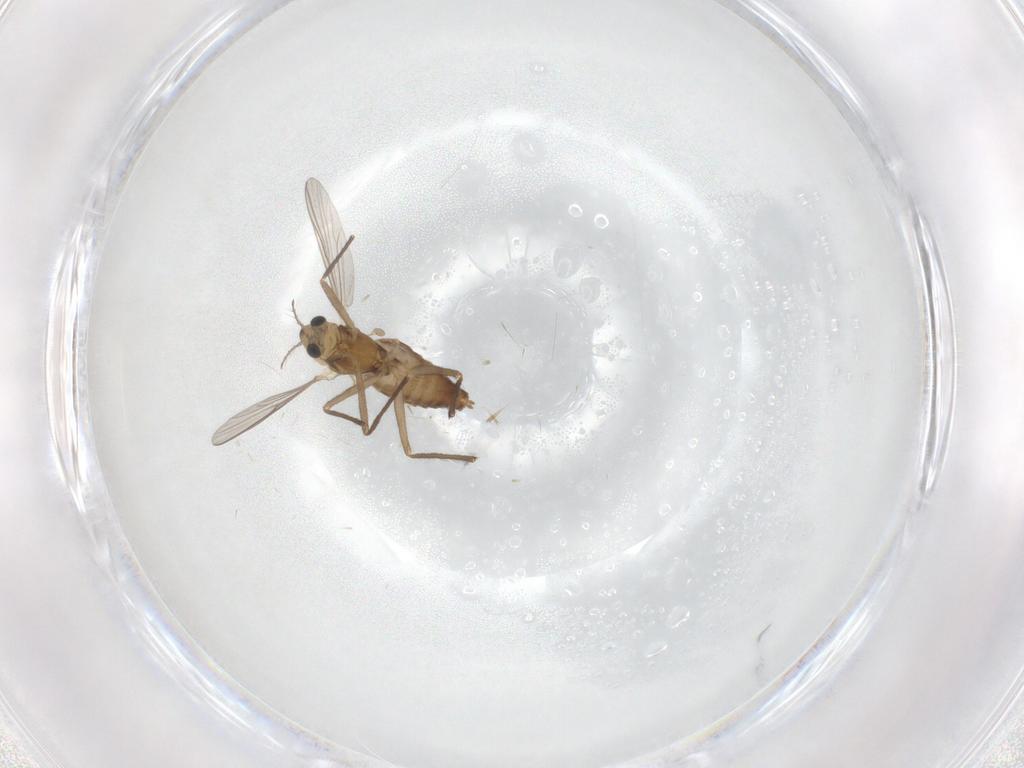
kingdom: Animalia
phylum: Arthropoda
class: Insecta
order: Diptera
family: Chironomidae
